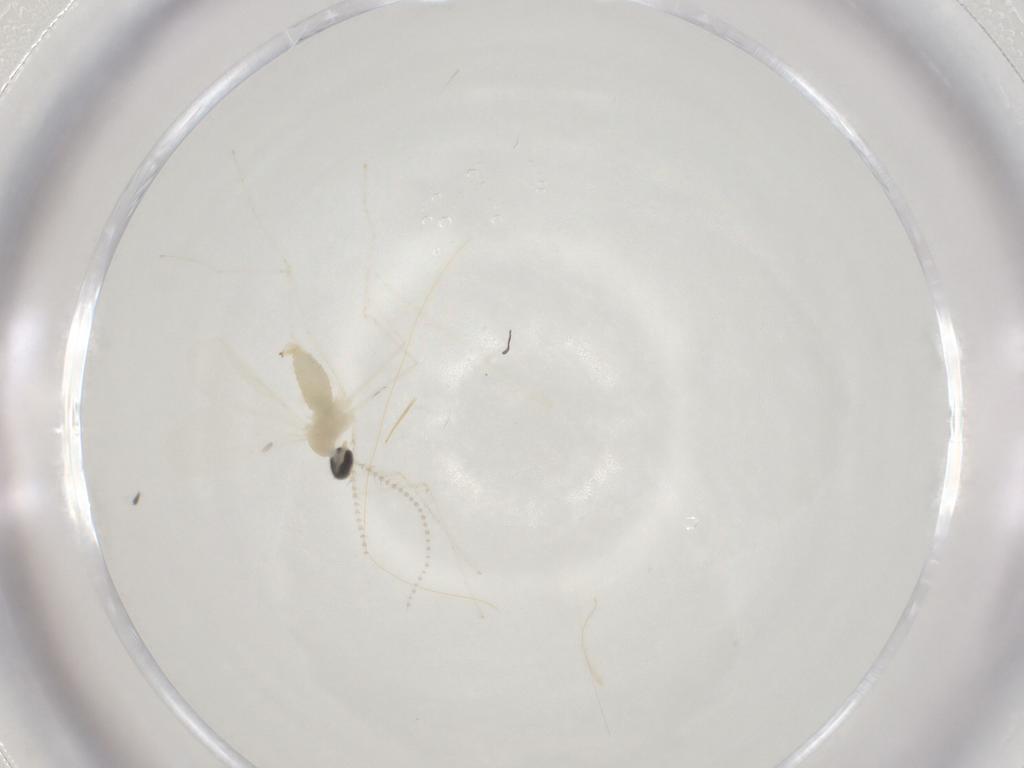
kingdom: Animalia
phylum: Arthropoda
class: Insecta
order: Diptera
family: Cecidomyiidae
